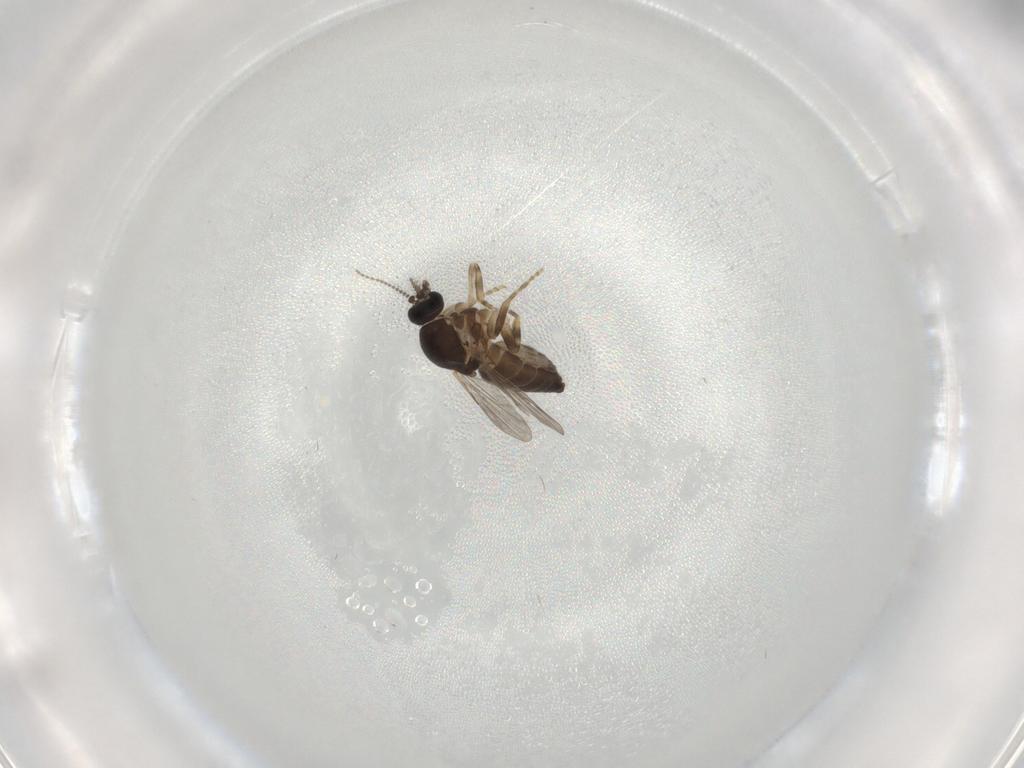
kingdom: Animalia
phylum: Arthropoda
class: Insecta
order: Diptera
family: Ceratopogonidae
